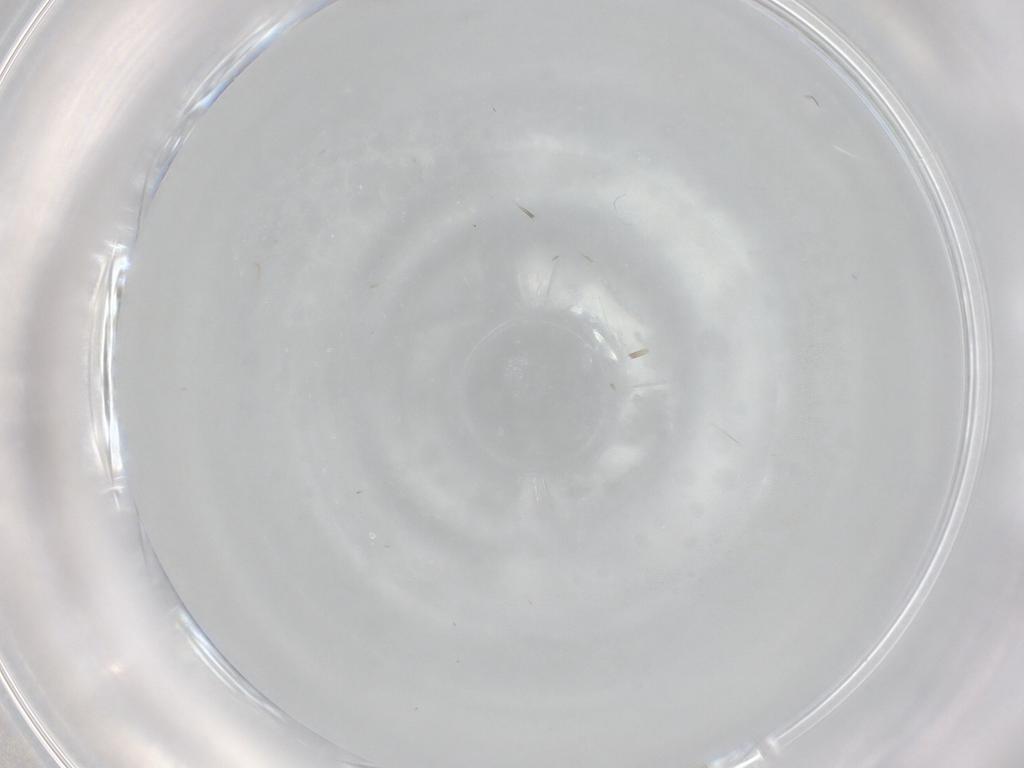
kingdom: Animalia
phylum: Arthropoda
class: Insecta
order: Diptera
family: Cecidomyiidae
